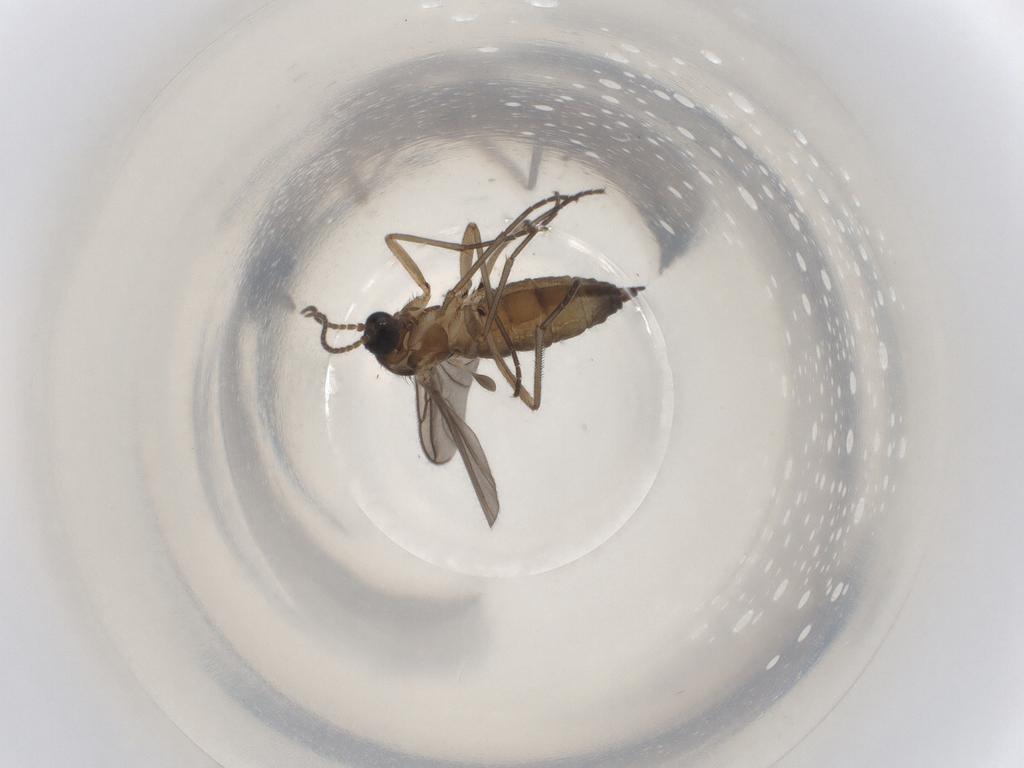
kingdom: Animalia
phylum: Arthropoda
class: Insecta
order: Diptera
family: Sciaridae
